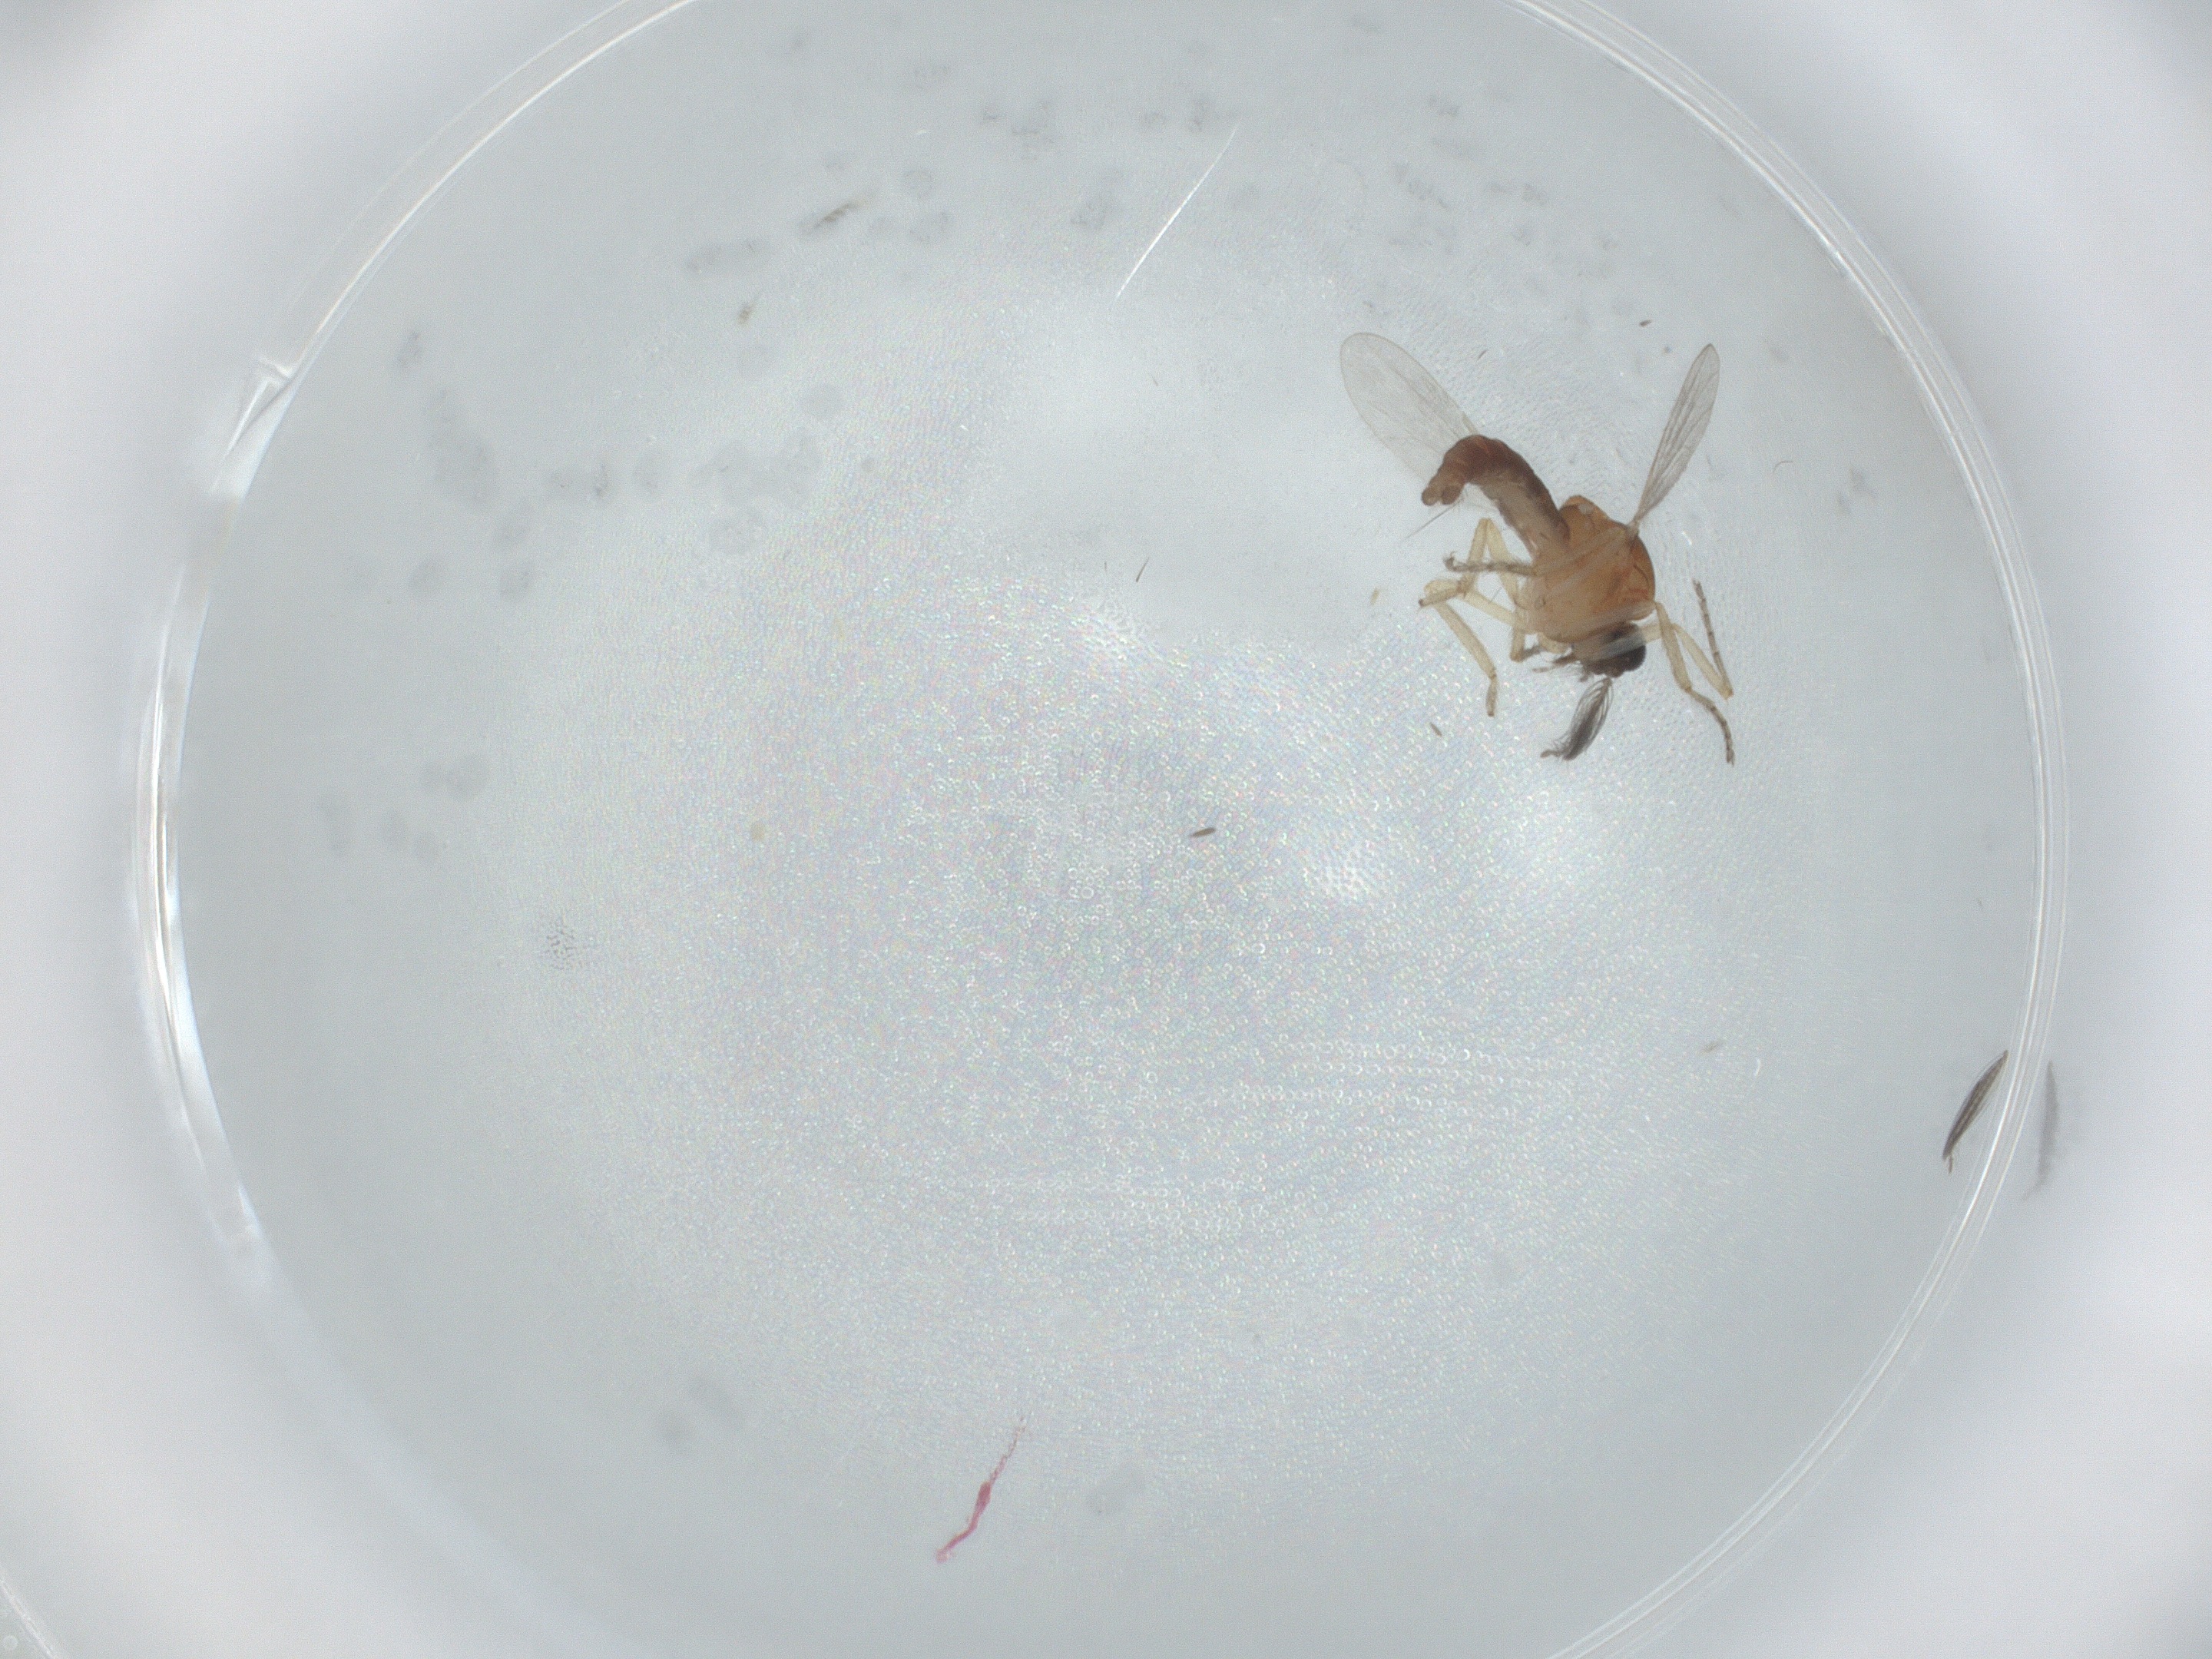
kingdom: Animalia
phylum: Arthropoda
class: Insecta
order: Diptera
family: Ceratopogonidae
